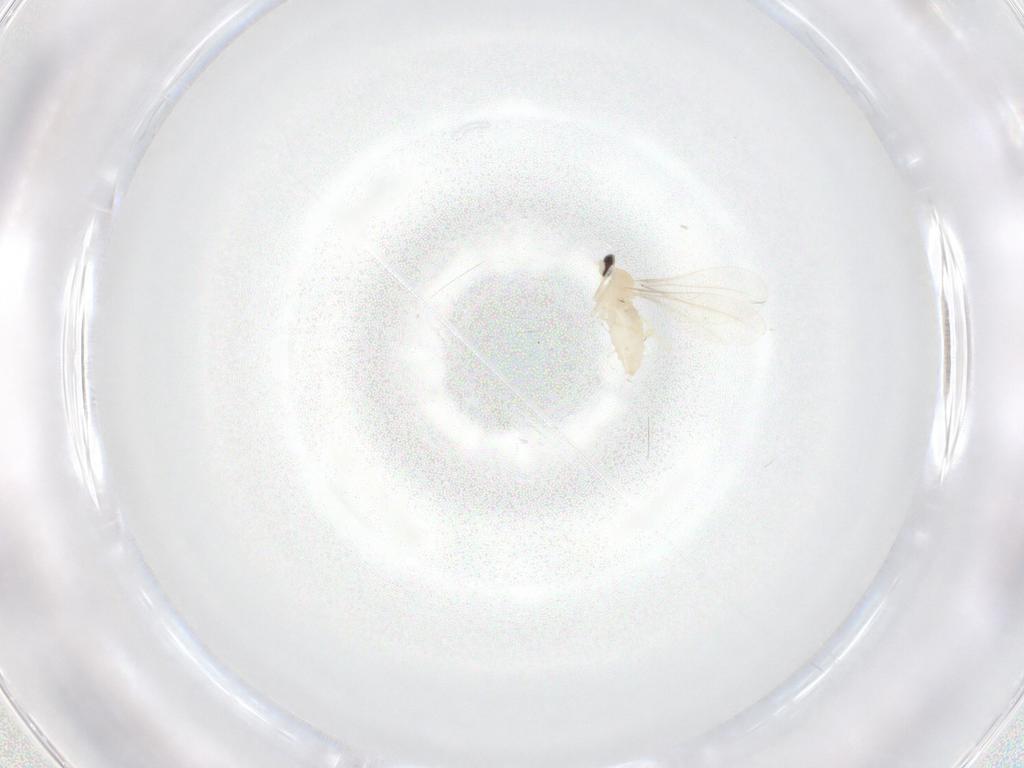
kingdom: Animalia
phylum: Arthropoda
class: Insecta
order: Diptera
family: Cecidomyiidae
